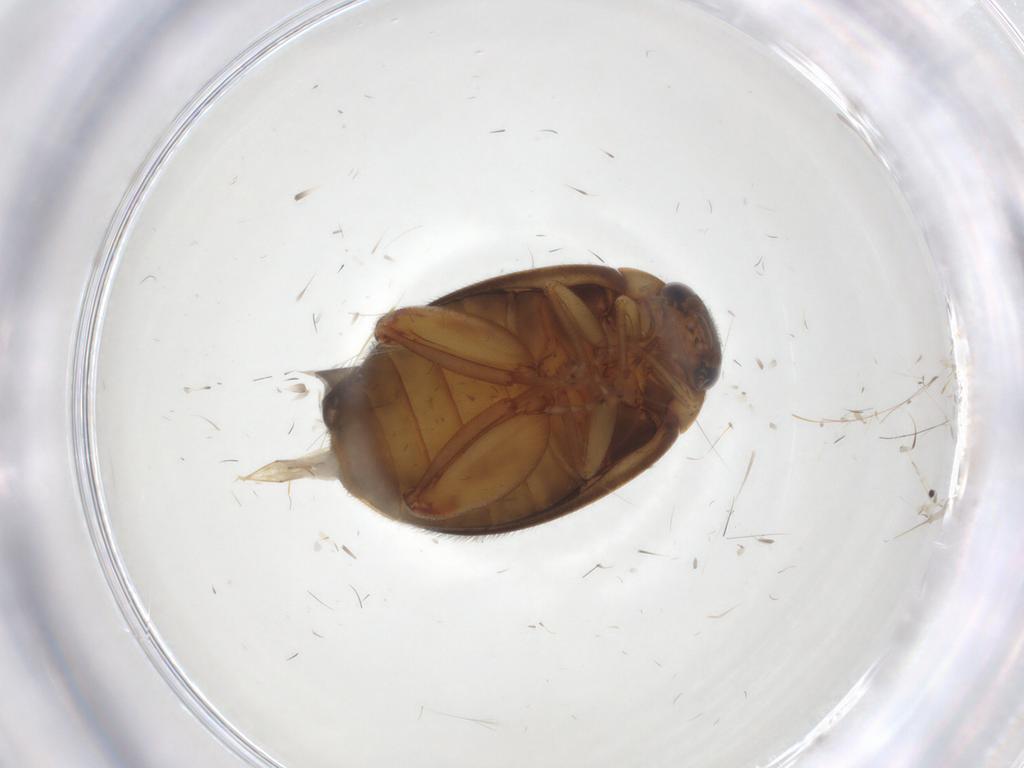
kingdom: Animalia
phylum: Arthropoda
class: Insecta
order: Coleoptera
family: Scirtidae
